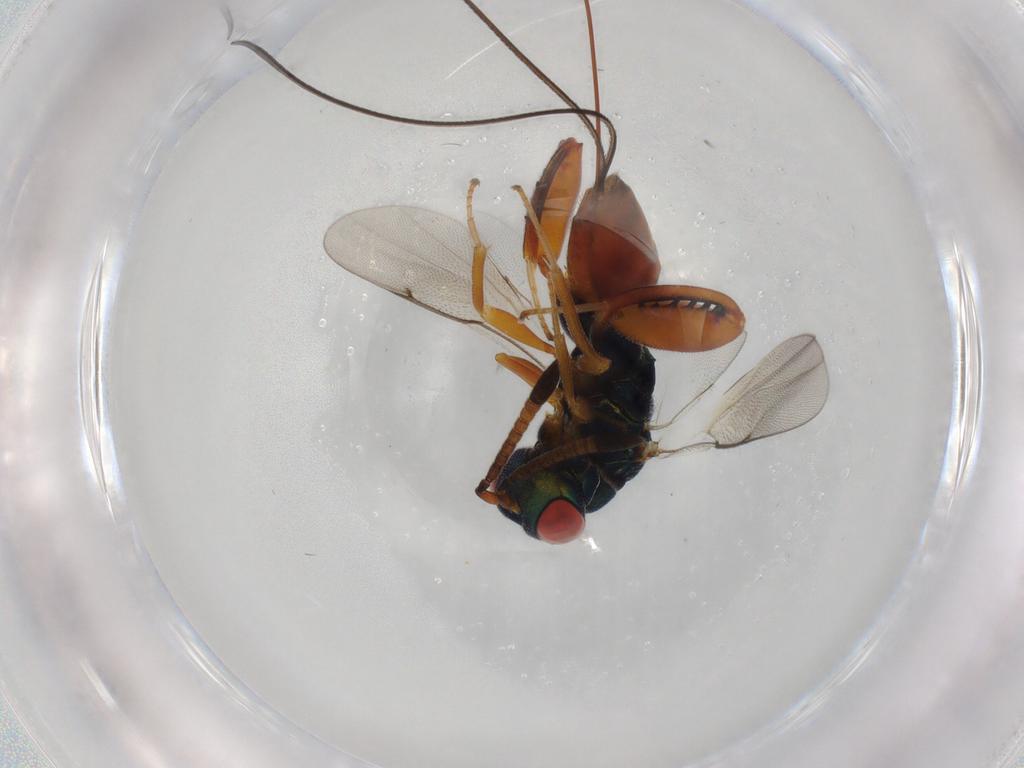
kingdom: Animalia
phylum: Arthropoda
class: Insecta
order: Hymenoptera
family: Torymidae
